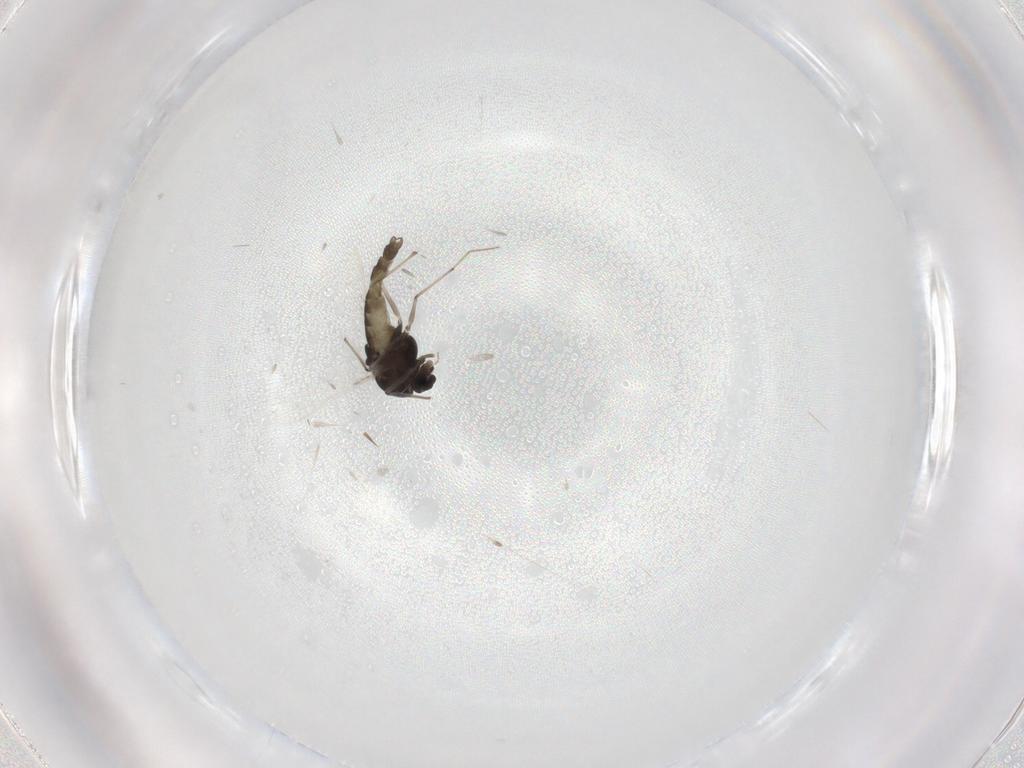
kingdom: Animalia
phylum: Arthropoda
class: Insecta
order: Diptera
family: Chironomidae
